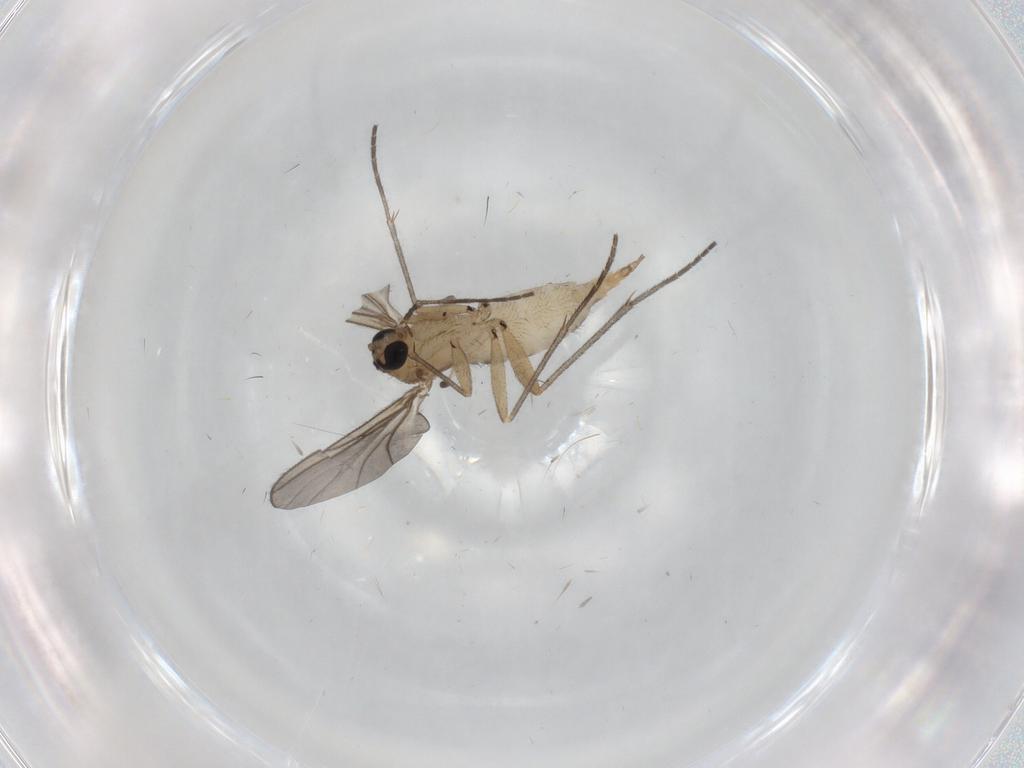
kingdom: Animalia
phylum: Arthropoda
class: Insecta
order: Diptera
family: Sciaridae
